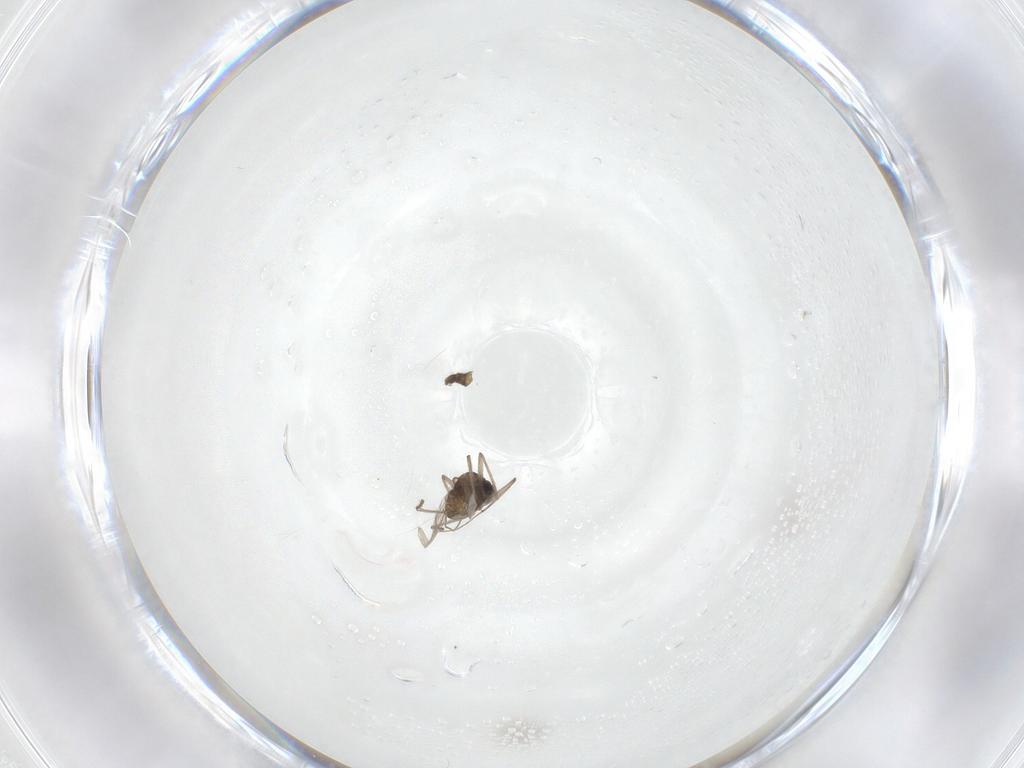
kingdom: Animalia
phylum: Arthropoda
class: Insecta
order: Diptera
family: Chironomidae
